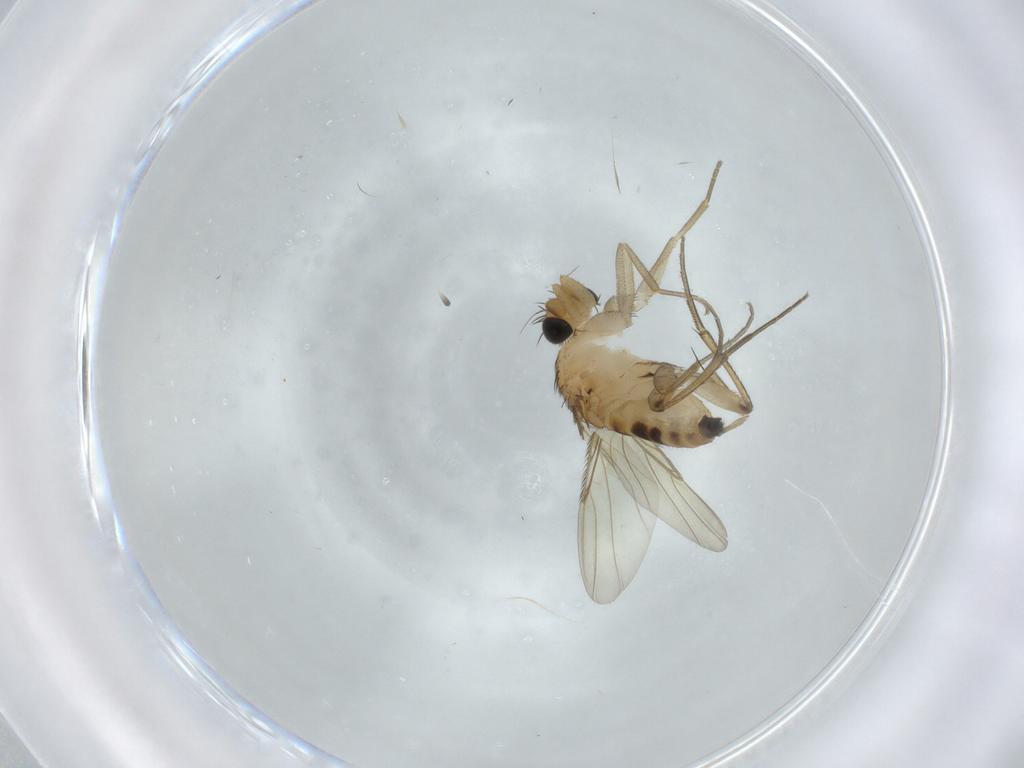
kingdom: Animalia
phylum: Arthropoda
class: Insecta
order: Diptera
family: Phoridae
